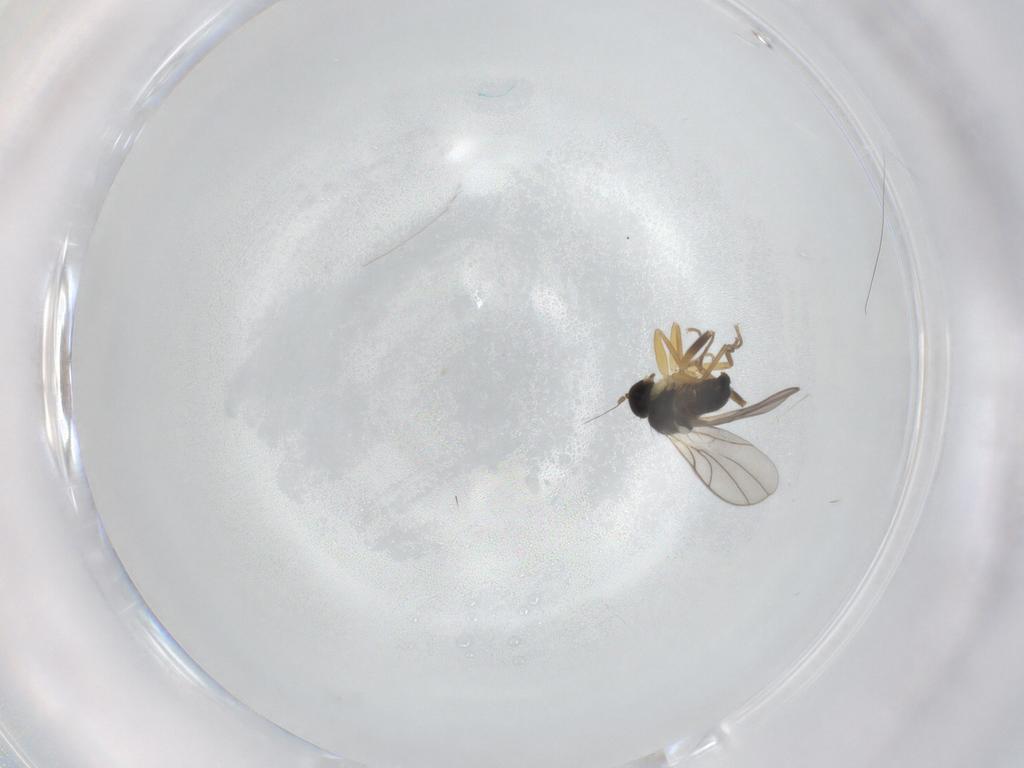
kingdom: Animalia
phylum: Arthropoda
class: Insecta
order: Diptera
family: Hybotidae
